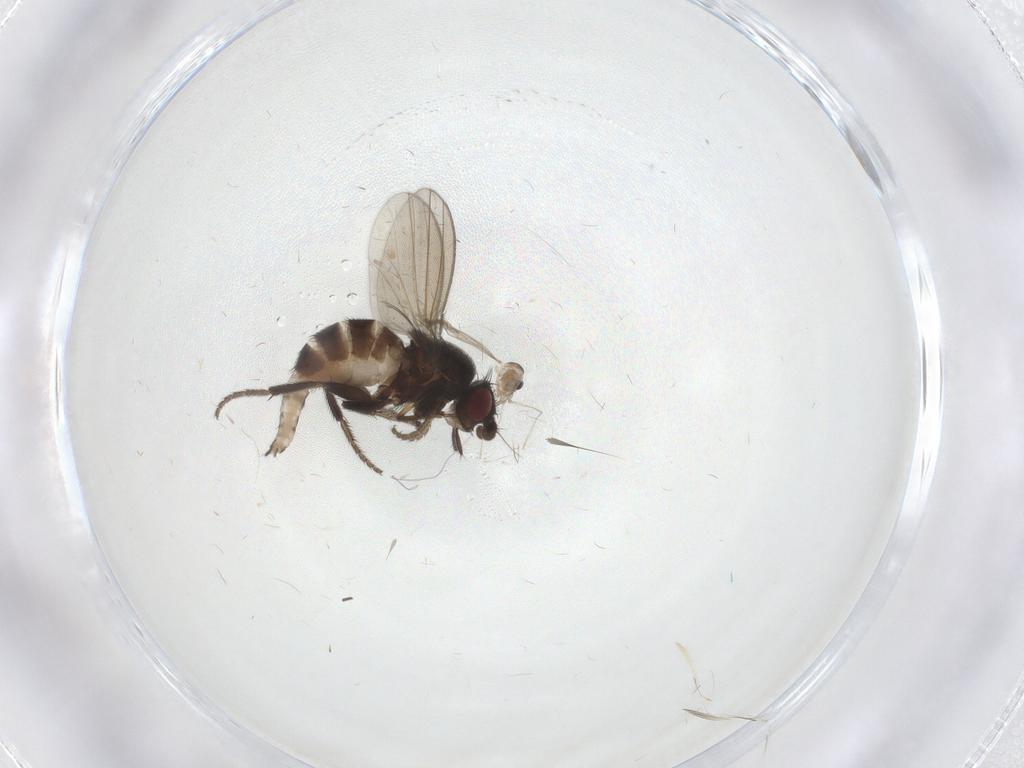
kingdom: Animalia
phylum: Arthropoda
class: Insecta
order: Diptera
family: Milichiidae
